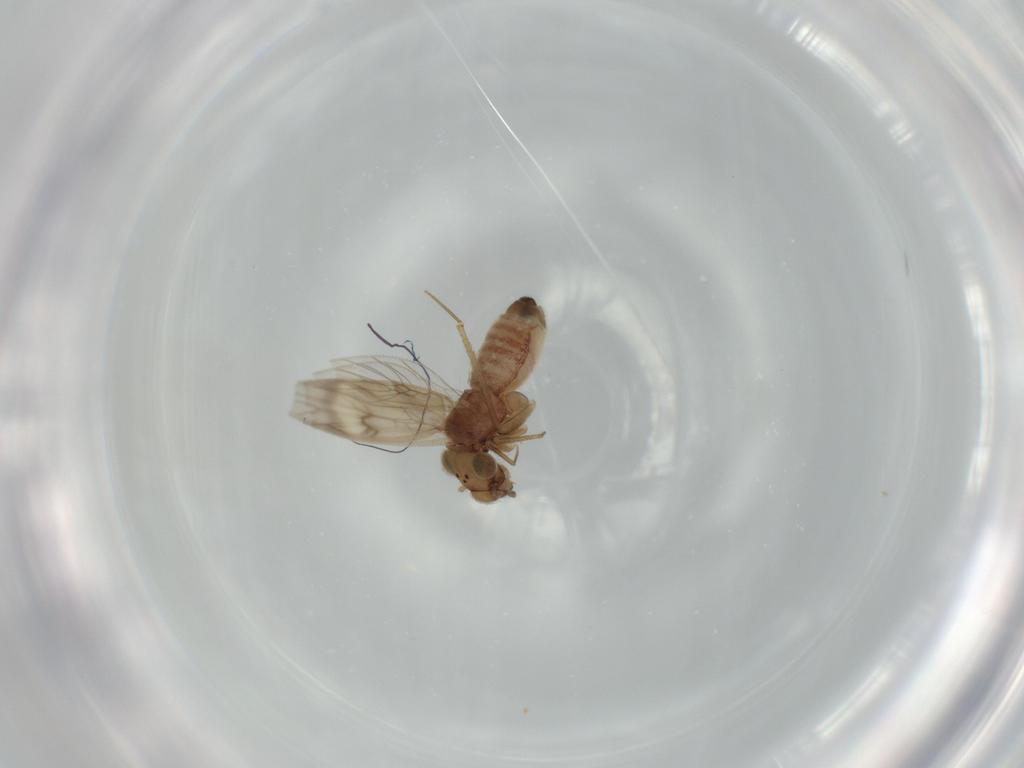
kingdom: Animalia
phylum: Arthropoda
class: Insecta
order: Psocodea
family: Lepidopsocidae
